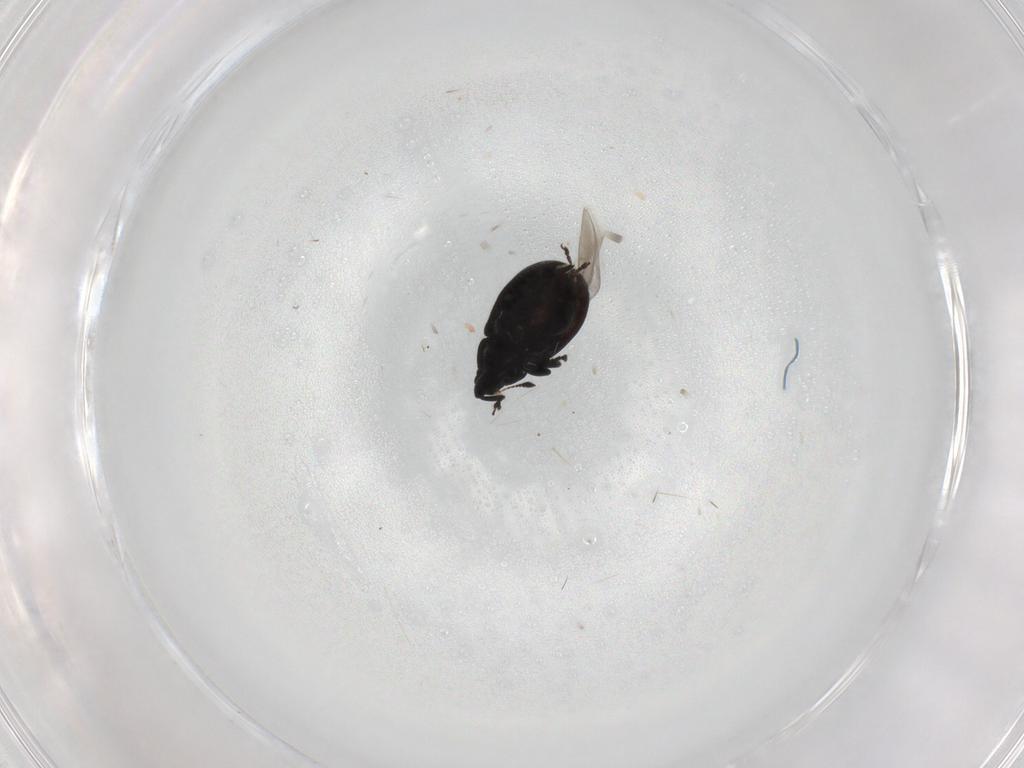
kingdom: Animalia
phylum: Arthropoda
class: Insecta
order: Coleoptera
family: Curculionidae
